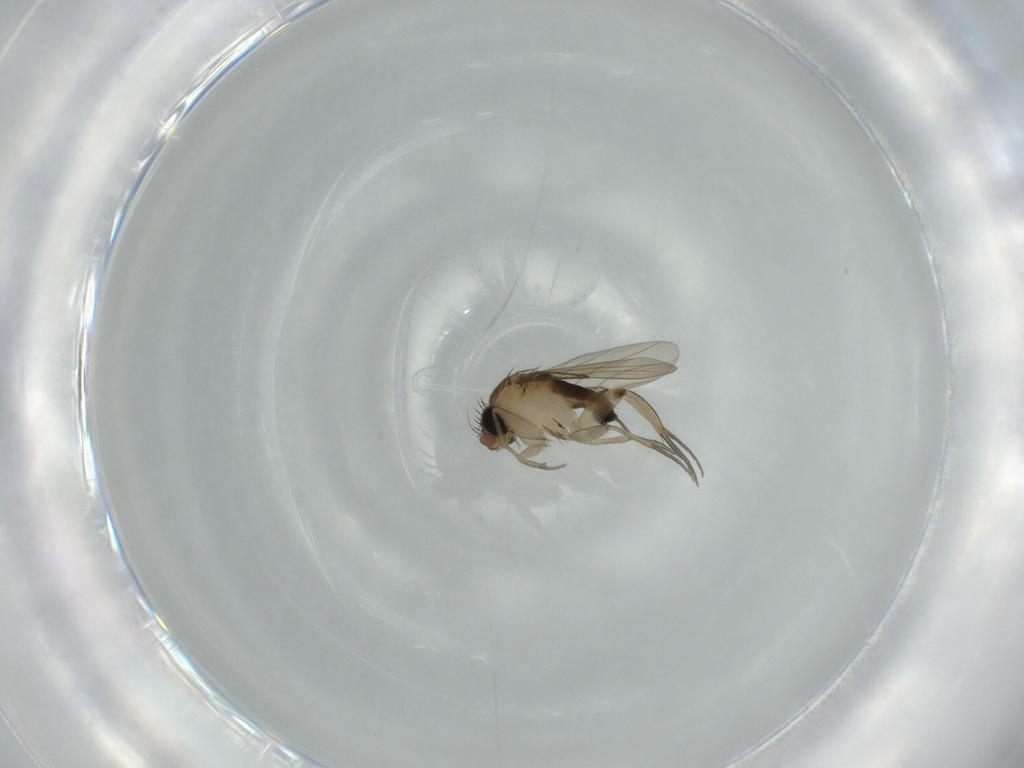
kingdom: Animalia
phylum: Arthropoda
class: Insecta
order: Diptera
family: Phoridae
